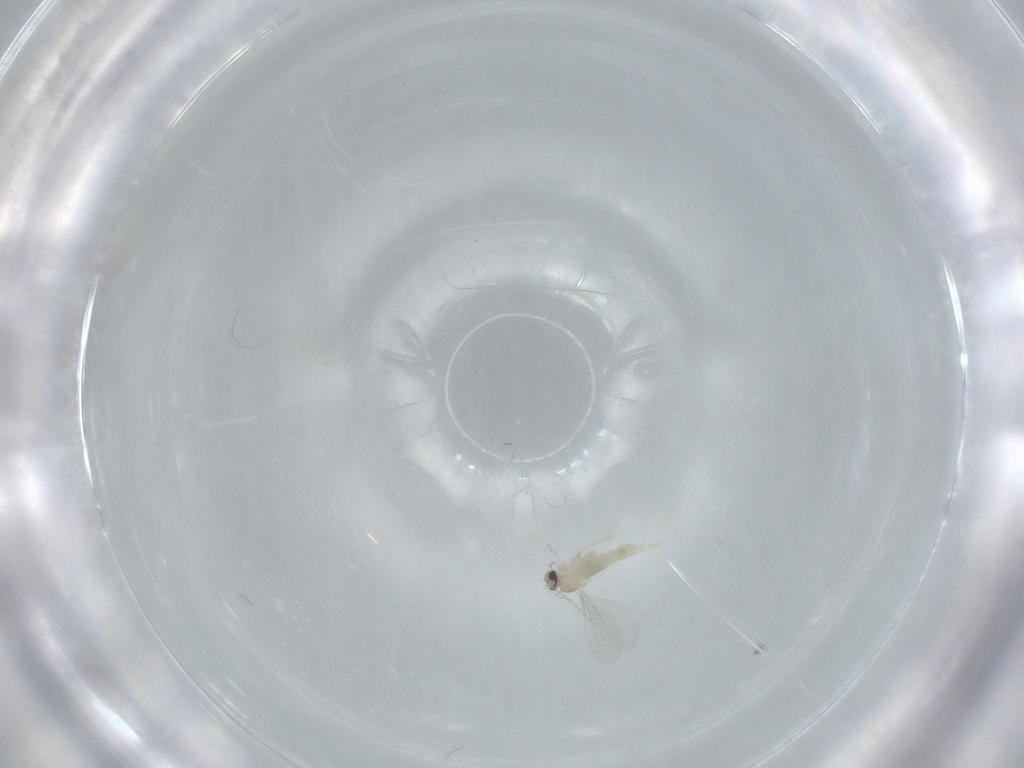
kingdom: Animalia
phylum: Arthropoda
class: Insecta
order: Diptera
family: Cecidomyiidae
